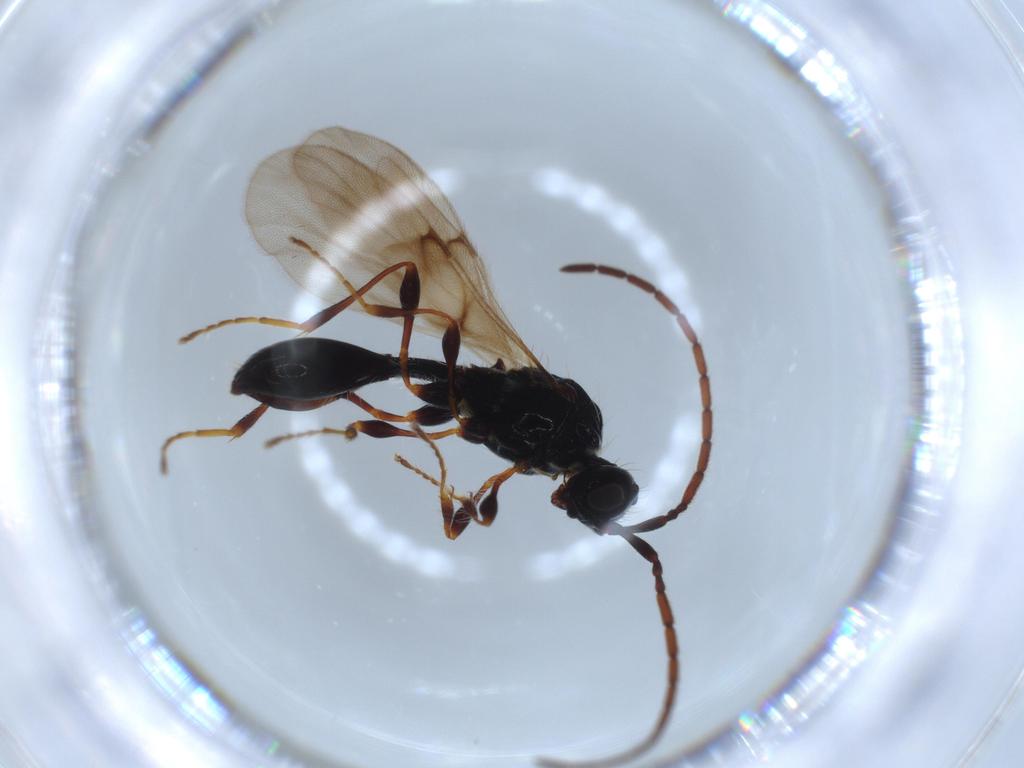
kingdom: Animalia
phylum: Arthropoda
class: Insecta
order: Hymenoptera
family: Diapriidae
